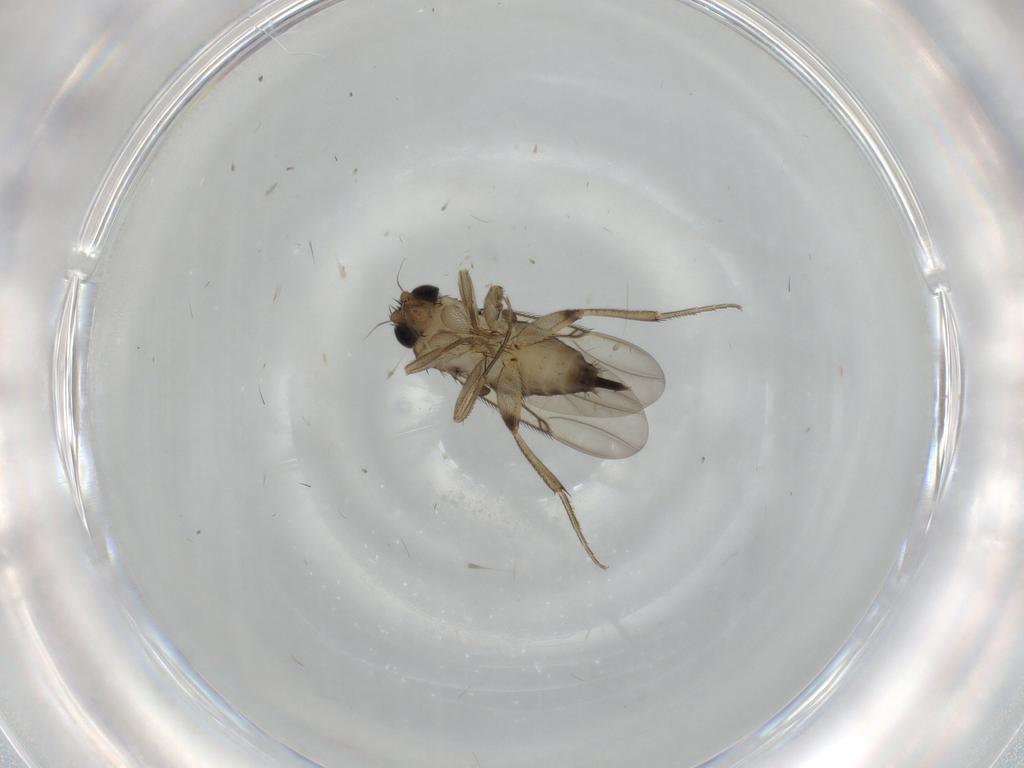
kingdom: Animalia
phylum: Arthropoda
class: Insecta
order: Diptera
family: Phoridae
